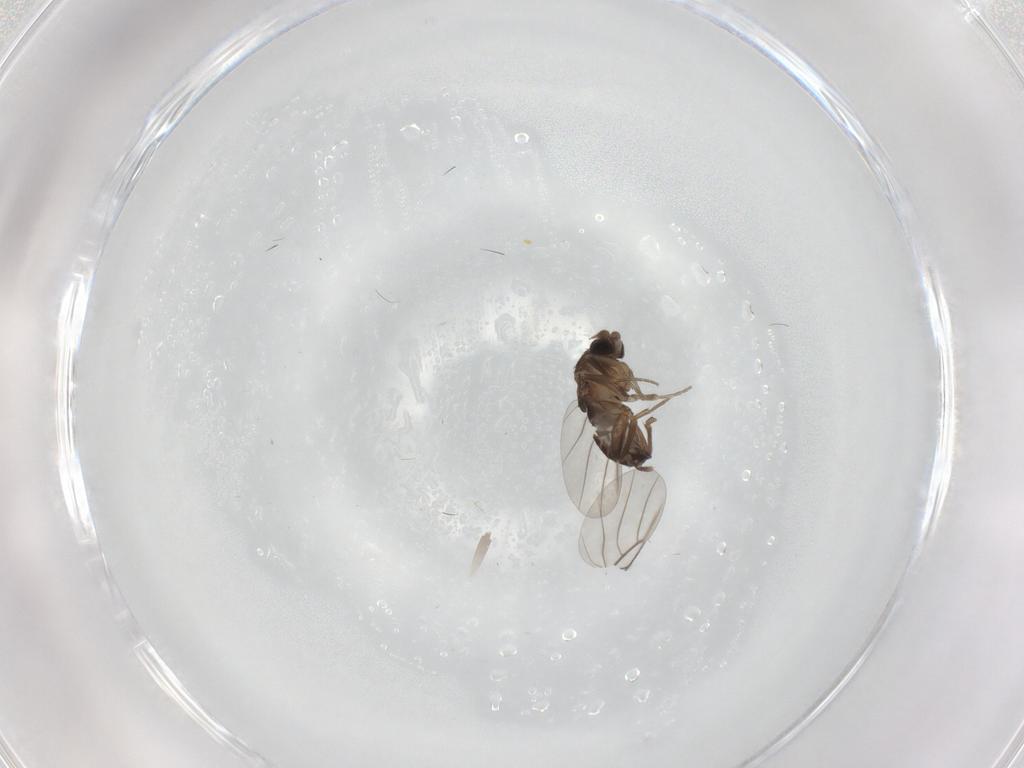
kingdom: Animalia
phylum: Arthropoda
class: Insecta
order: Diptera
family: Phoridae
